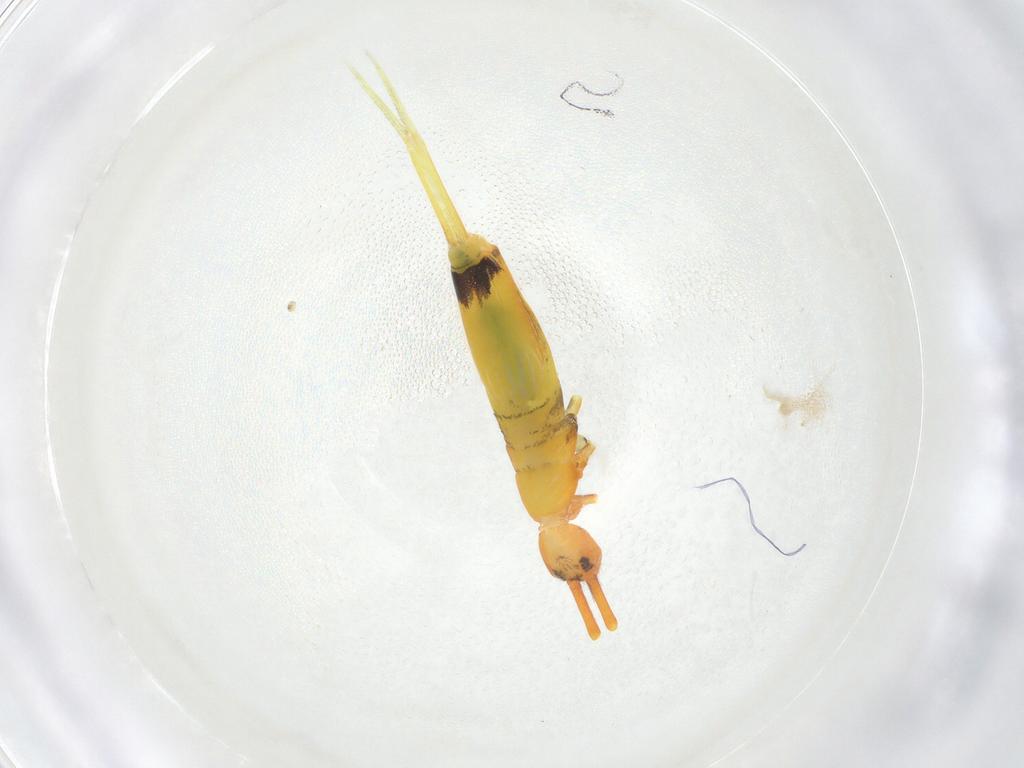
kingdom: Animalia
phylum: Arthropoda
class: Collembola
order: Entomobryomorpha
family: Entomobryidae
